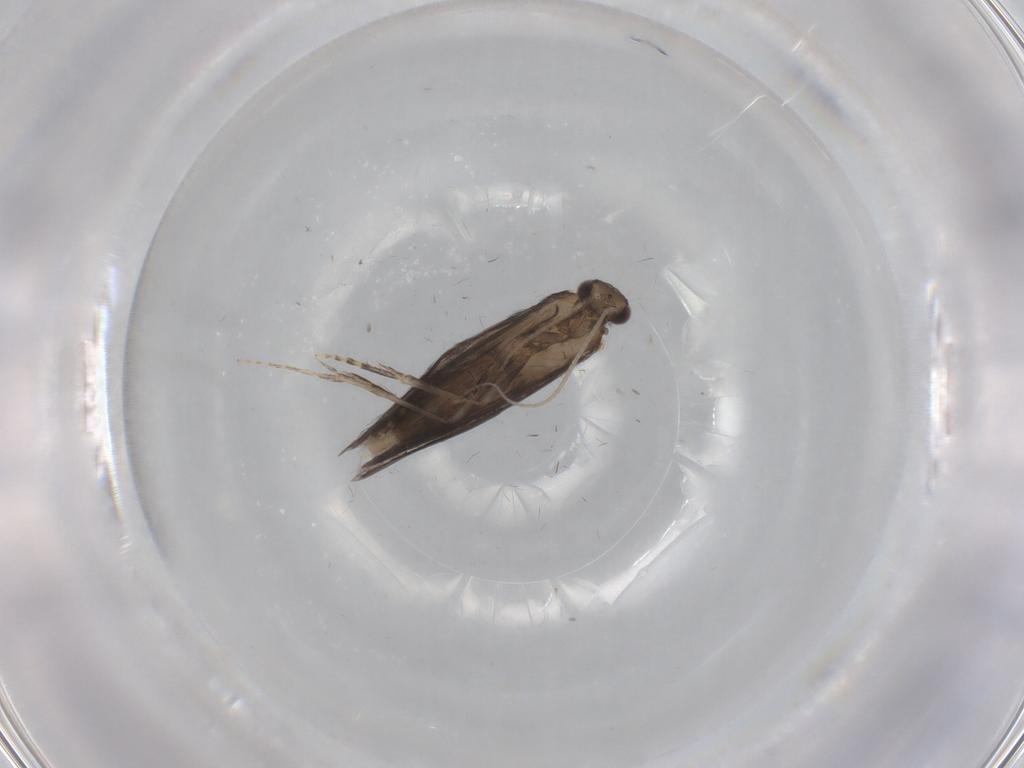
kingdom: Animalia
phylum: Arthropoda
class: Insecta
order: Trichoptera
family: Hydroptilidae
